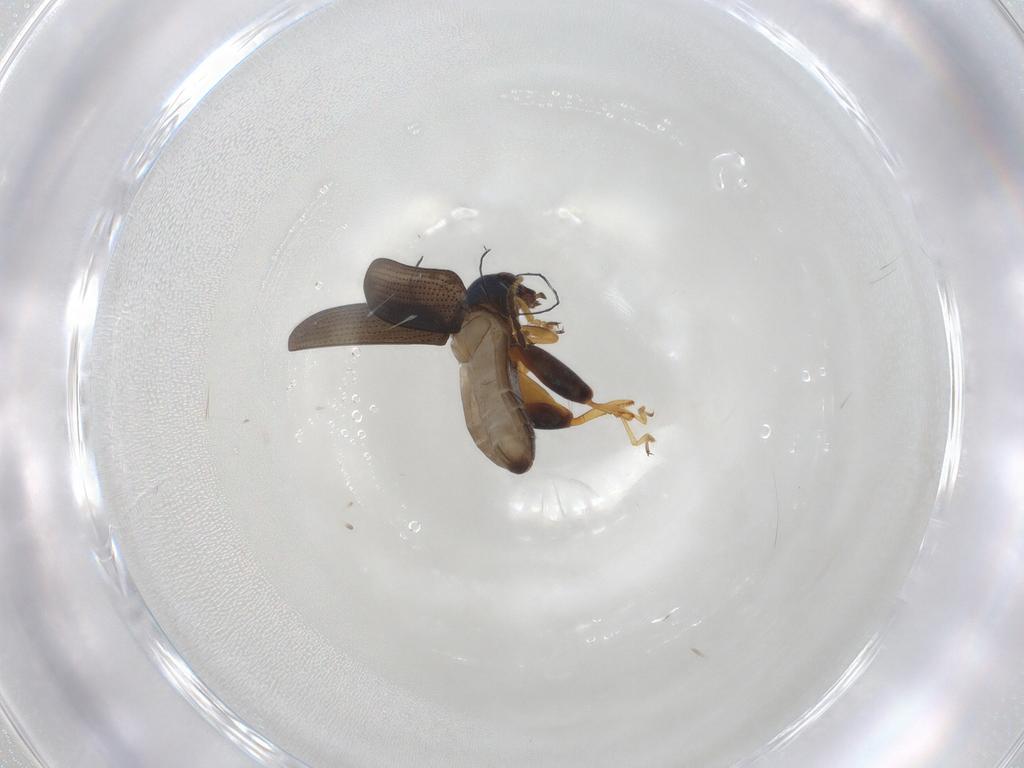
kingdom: Animalia
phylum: Arthropoda
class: Insecta
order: Coleoptera
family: Chrysomelidae
